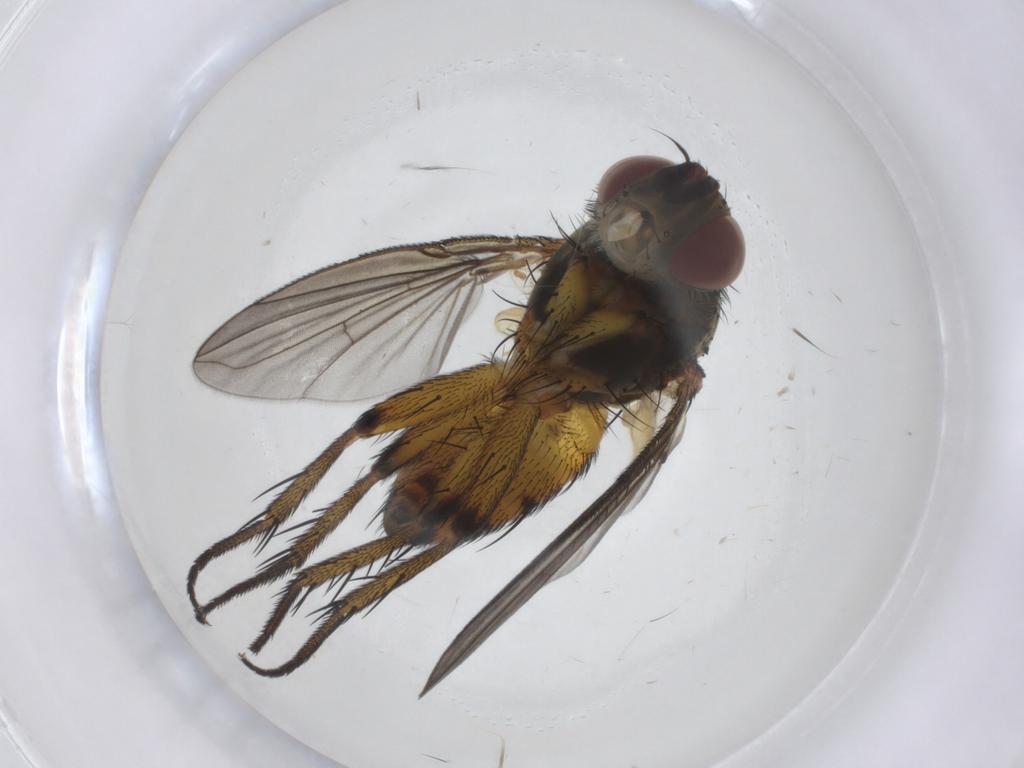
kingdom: Animalia
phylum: Arthropoda
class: Insecta
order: Diptera
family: Tachinidae
